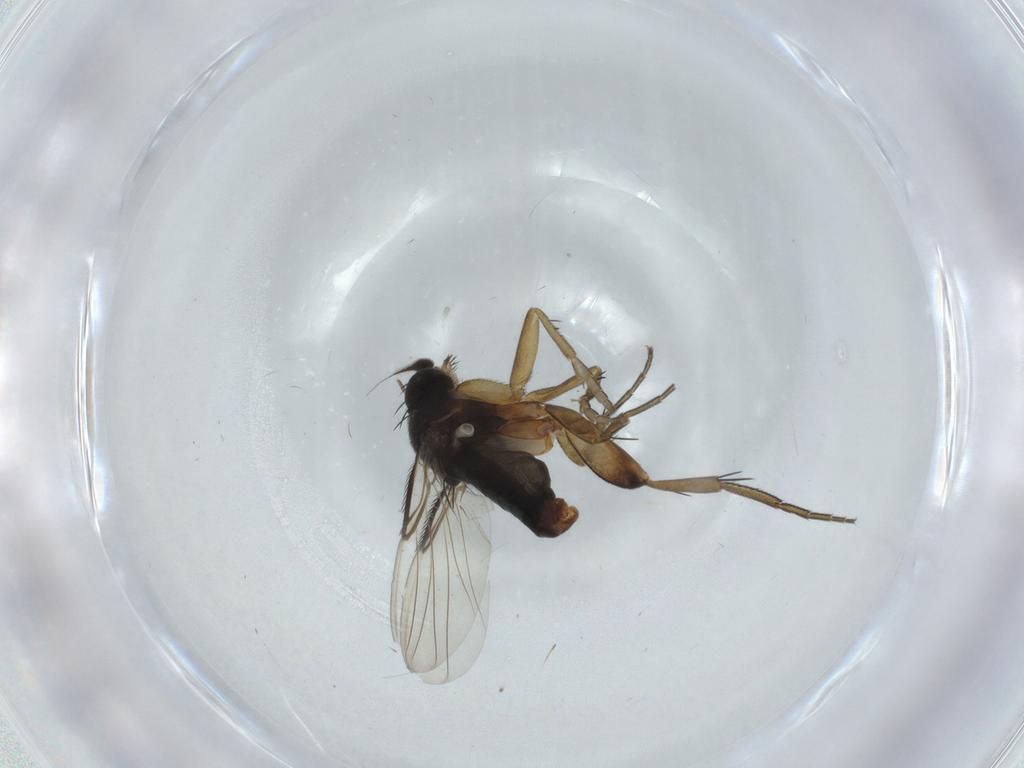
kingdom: Animalia
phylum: Arthropoda
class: Insecta
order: Diptera
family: Phoridae
